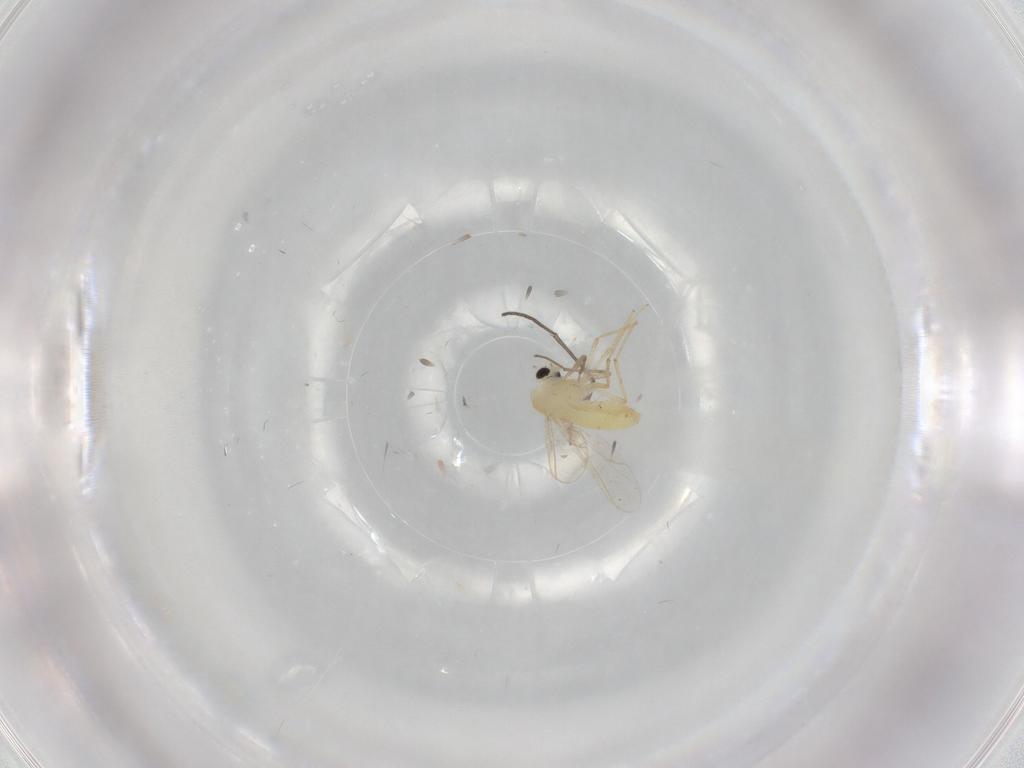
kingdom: Animalia
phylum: Arthropoda
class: Insecta
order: Diptera
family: Chironomidae
